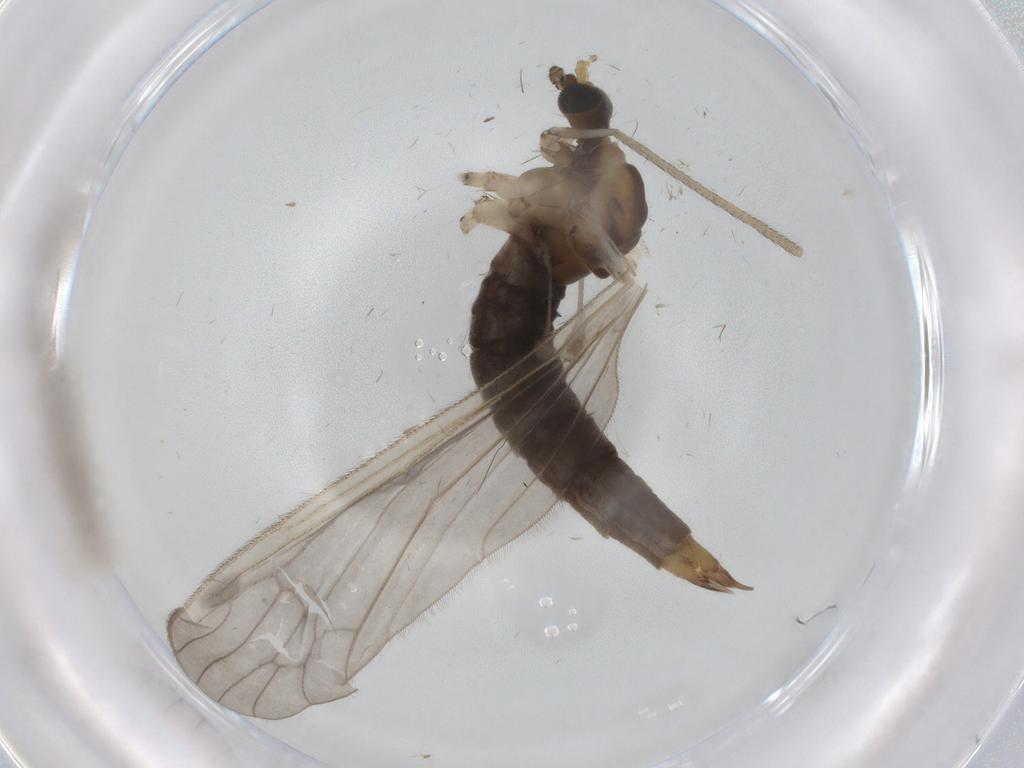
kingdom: Animalia
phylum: Arthropoda
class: Insecta
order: Diptera
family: Limoniidae
